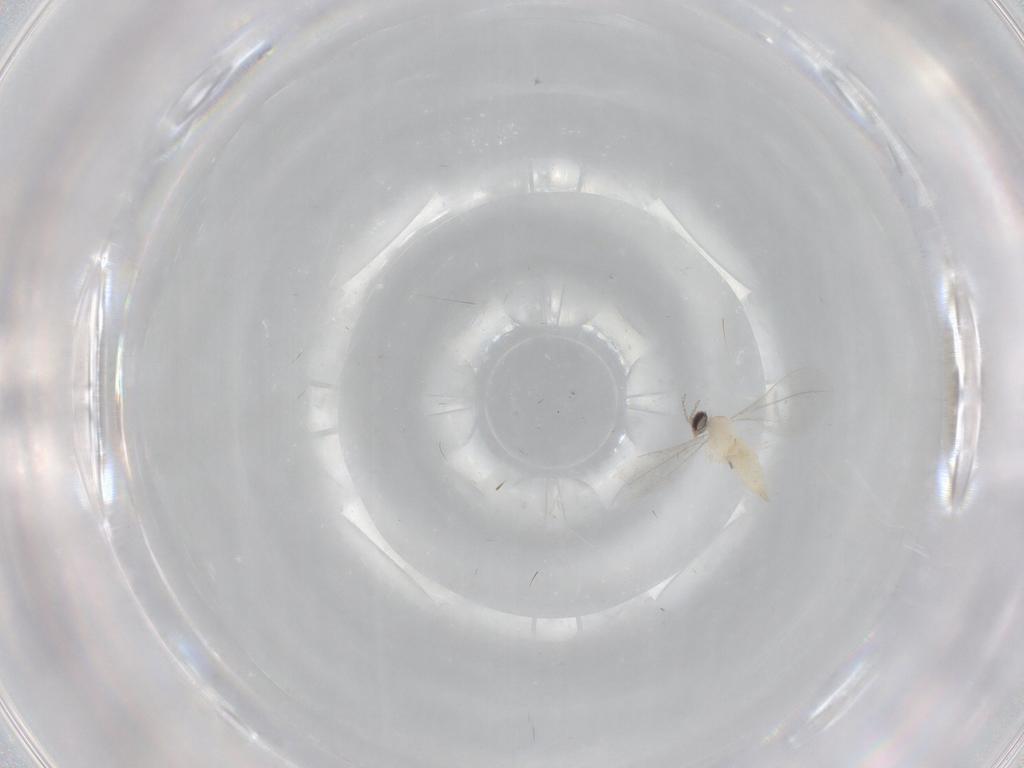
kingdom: Animalia
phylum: Arthropoda
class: Insecta
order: Diptera
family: Cecidomyiidae
